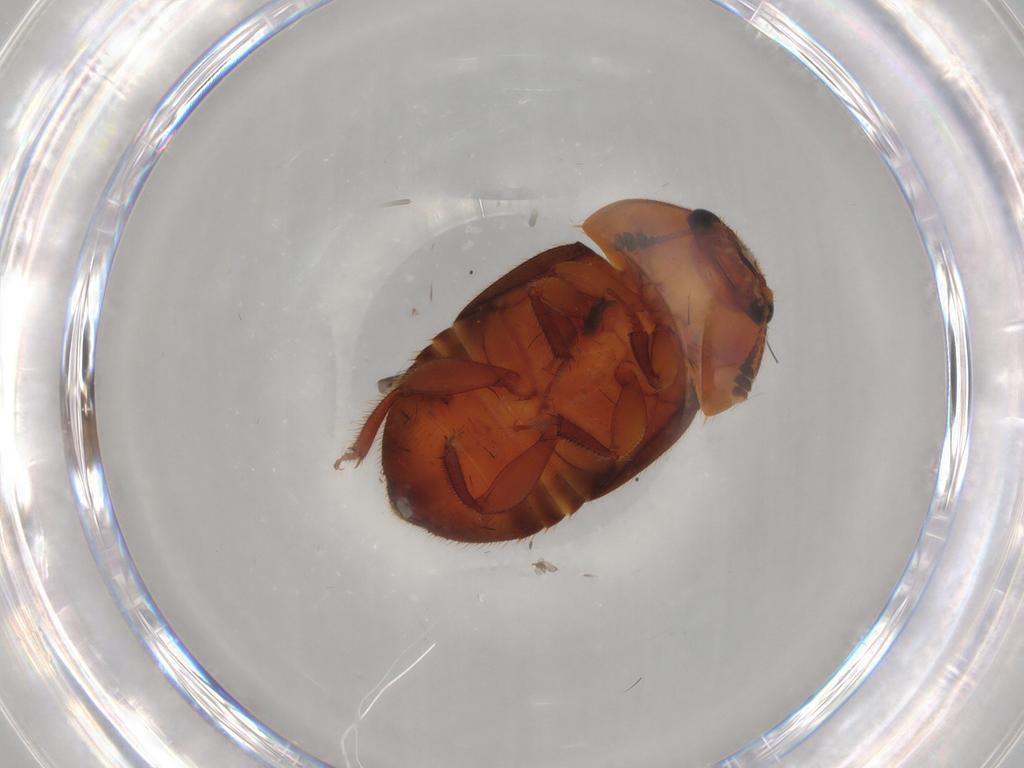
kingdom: Animalia
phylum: Arthropoda
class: Insecta
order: Coleoptera
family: Nitidulidae
